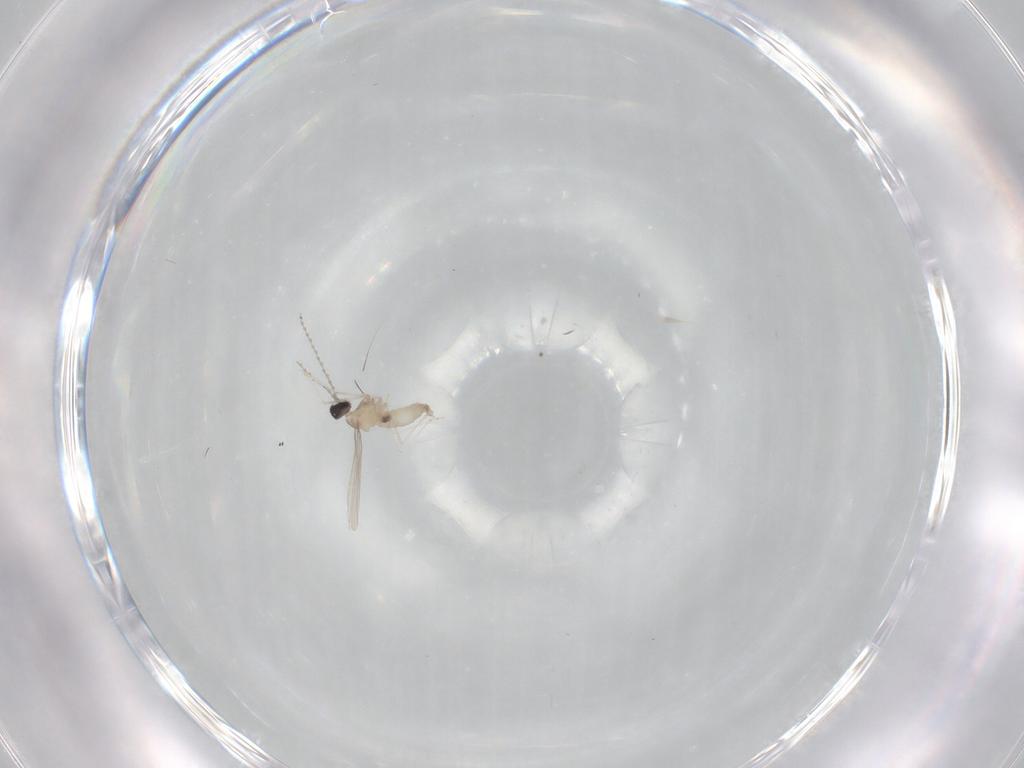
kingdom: Animalia
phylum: Arthropoda
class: Insecta
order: Diptera
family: Cecidomyiidae
